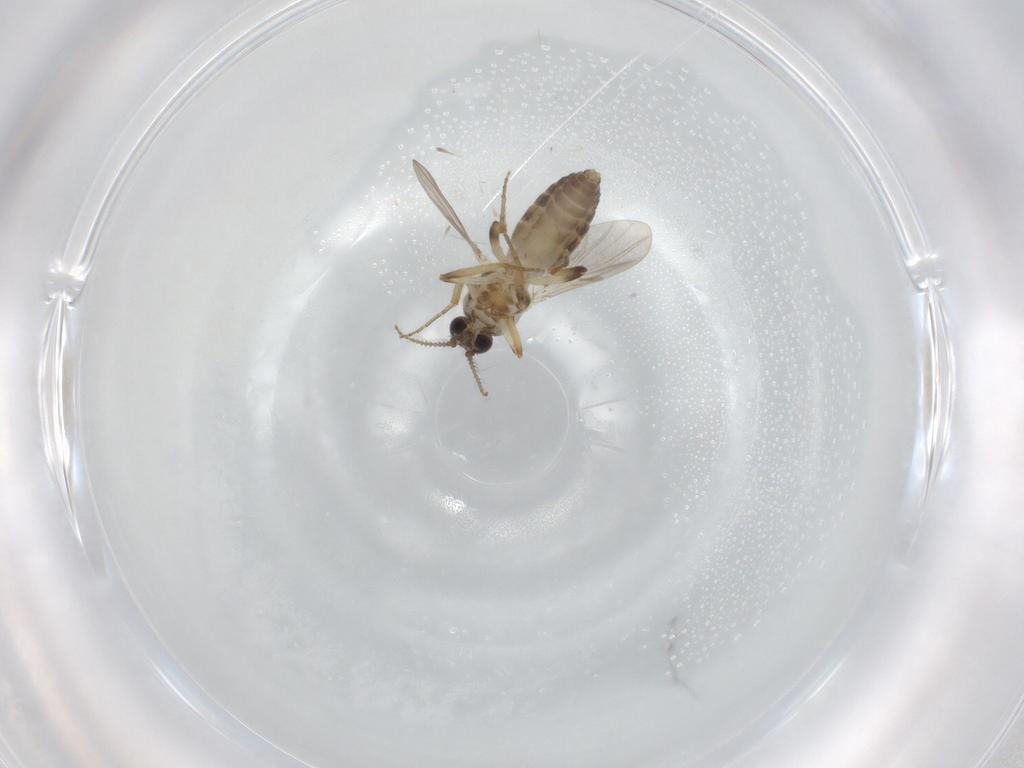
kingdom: Animalia
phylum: Arthropoda
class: Insecta
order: Diptera
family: Ceratopogonidae
